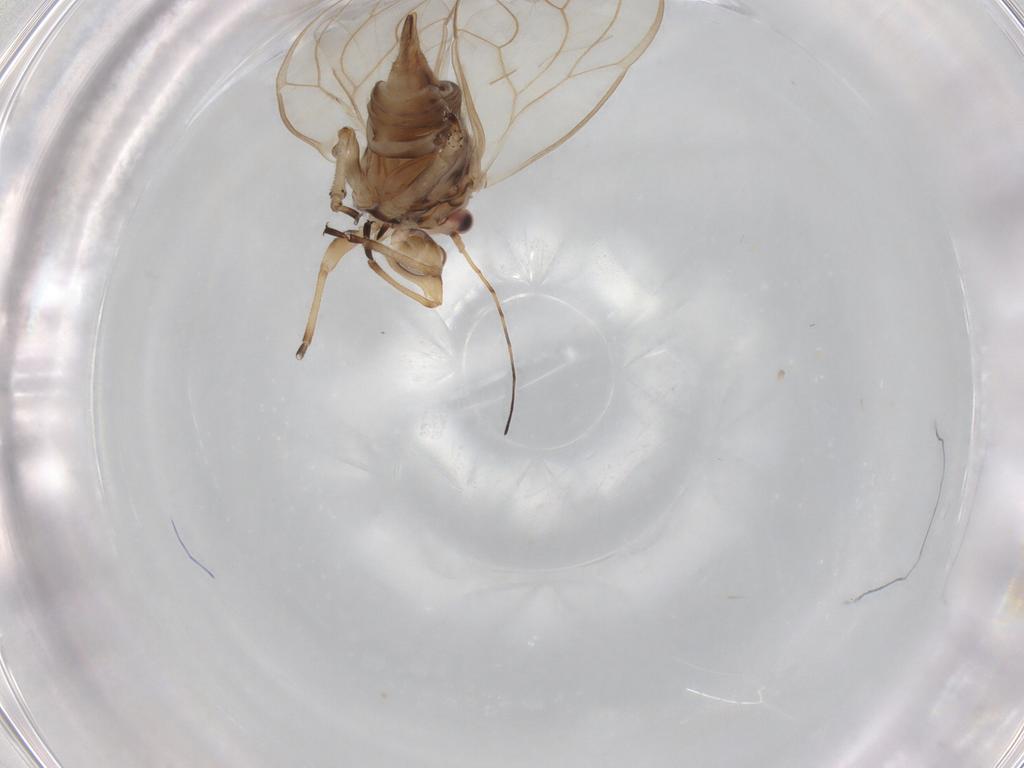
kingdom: Animalia
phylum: Arthropoda
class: Insecta
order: Hemiptera
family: Psyllidae
